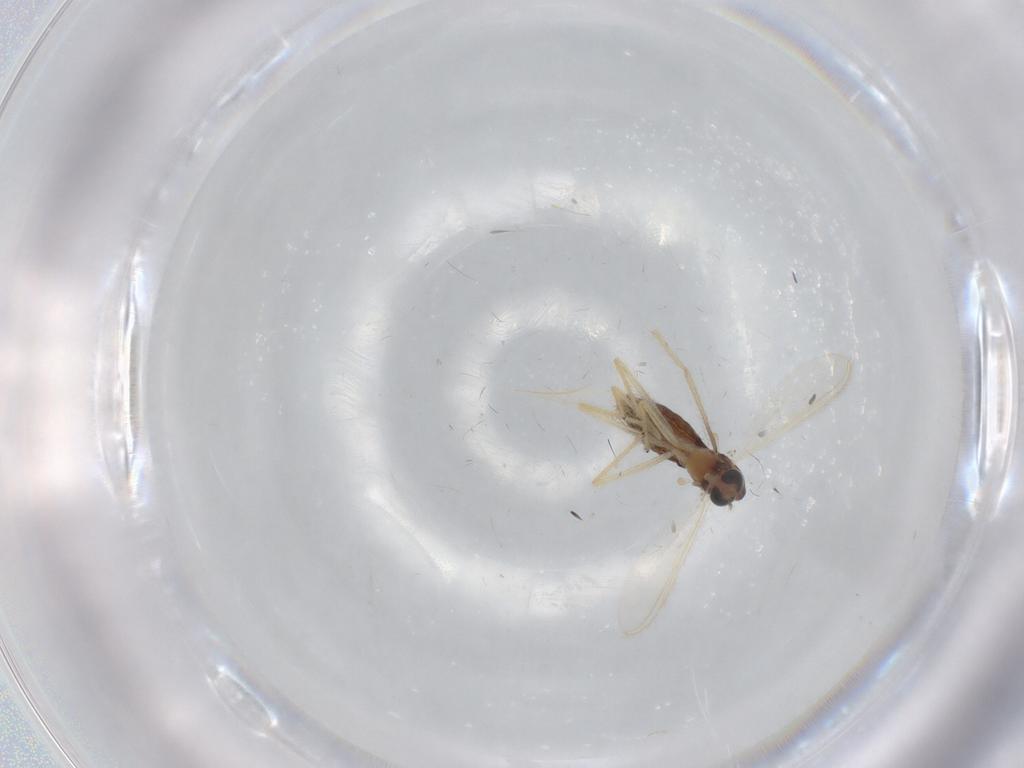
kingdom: Animalia
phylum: Arthropoda
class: Insecta
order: Diptera
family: Chironomidae
